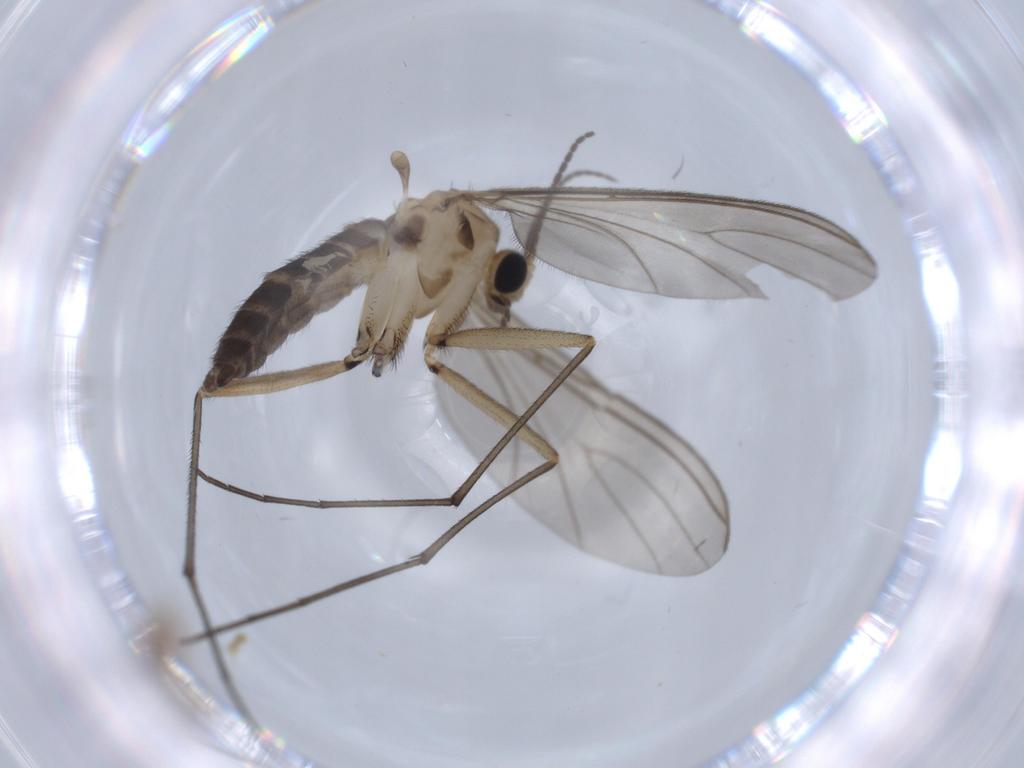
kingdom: Animalia
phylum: Arthropoda
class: Insecta
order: Diptera
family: Sciaridae
